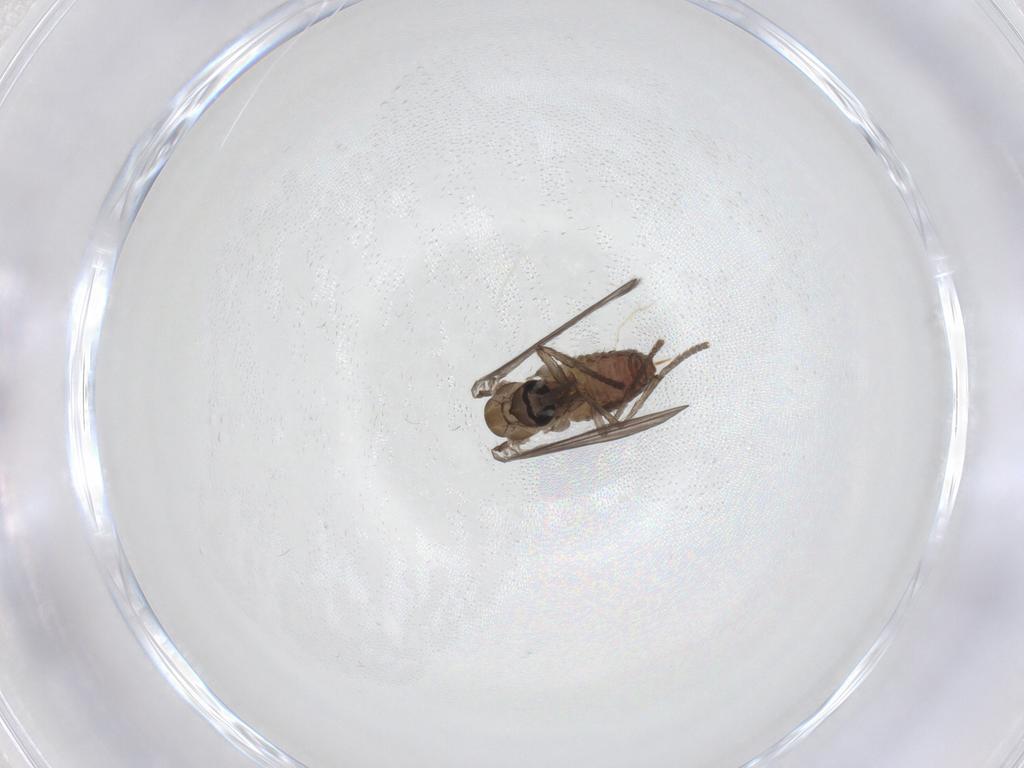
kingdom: Animalia
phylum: Arthropoda
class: Insecta
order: Diptera
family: Psychodidae
